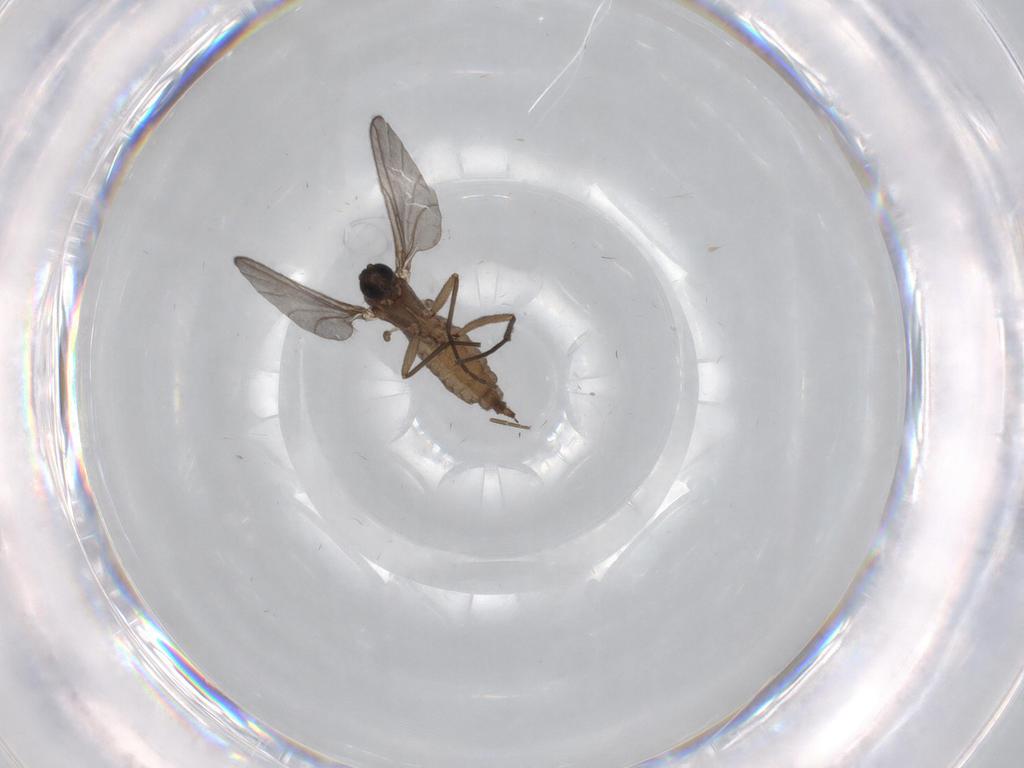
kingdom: Animalia
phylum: Arthropoda
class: Insecta
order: Diptera
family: Sciaridae
